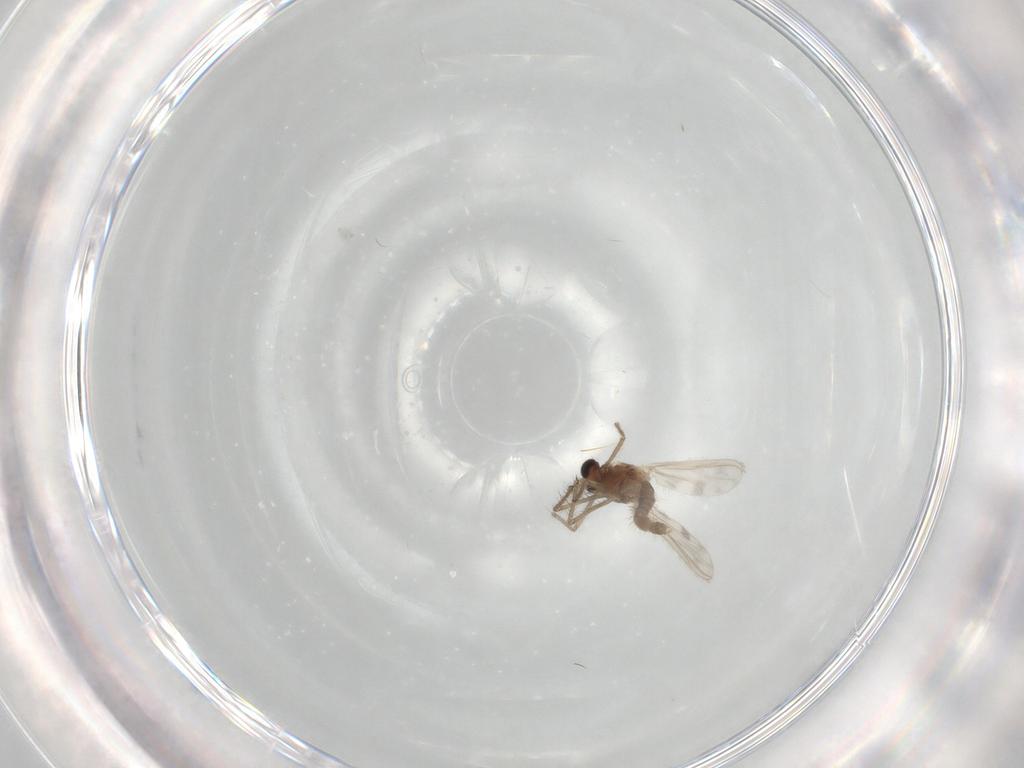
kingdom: Animalia
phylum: Arthropoda
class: Insecta
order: Diptera
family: Chironomidae
